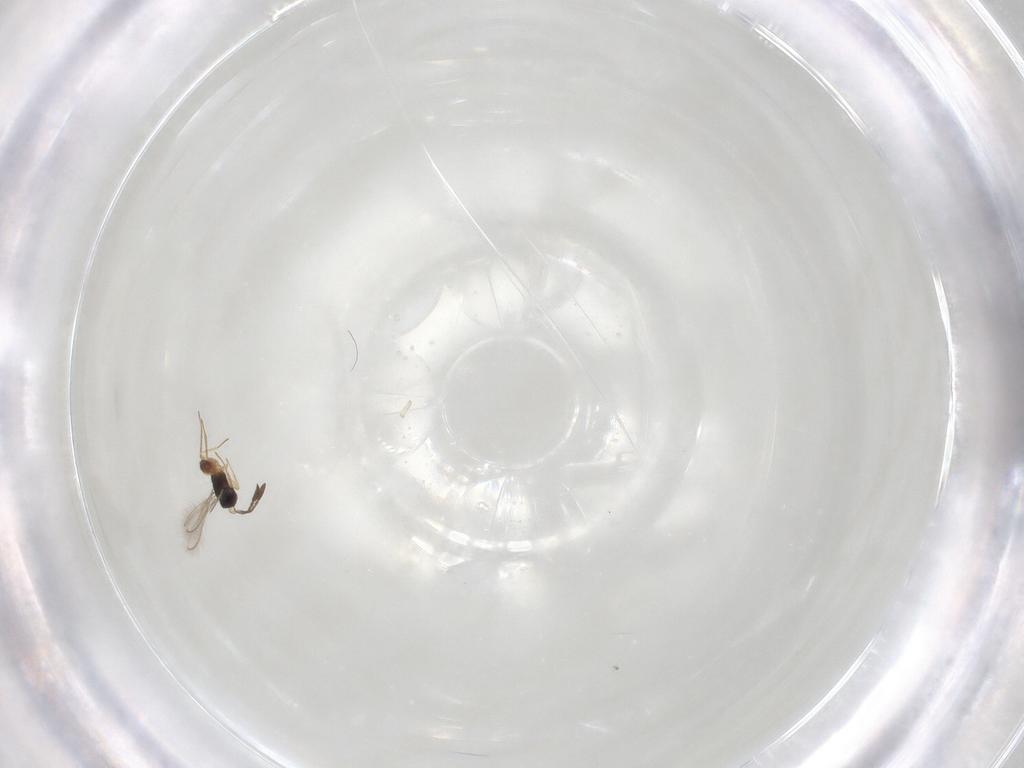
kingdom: Animalia
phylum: Arthropoda
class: Insecta
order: Hymenoptera
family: Mymaridae
